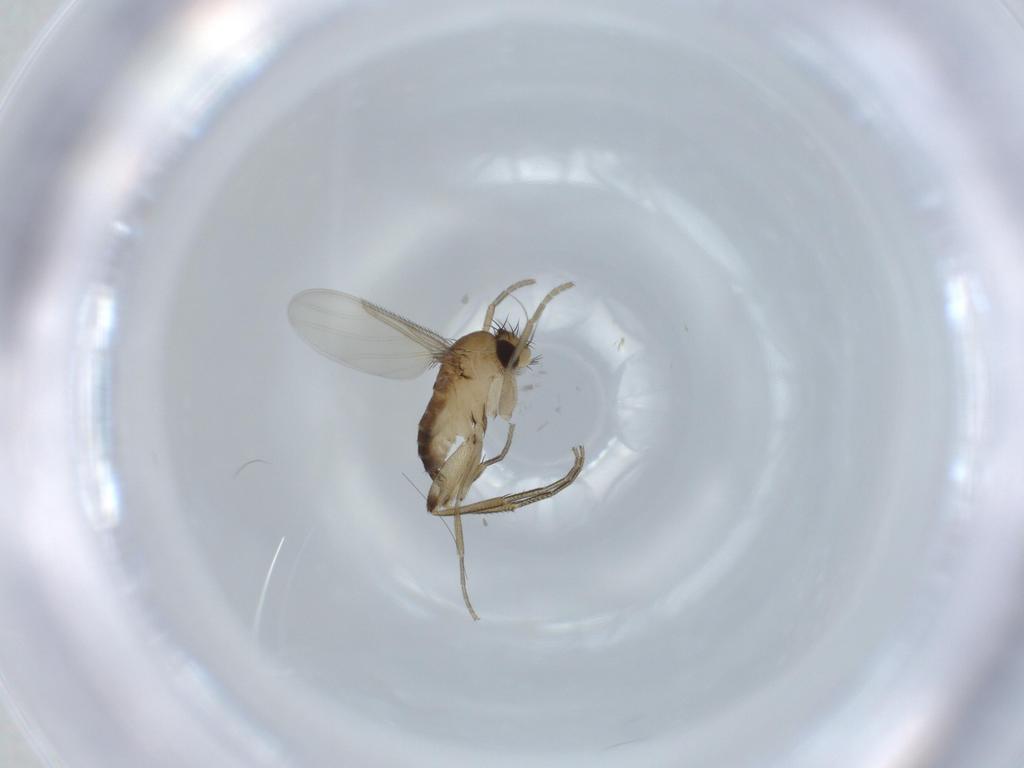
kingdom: Animalia
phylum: Arthropoda
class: Insecta
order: Diptera
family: Phoridae
